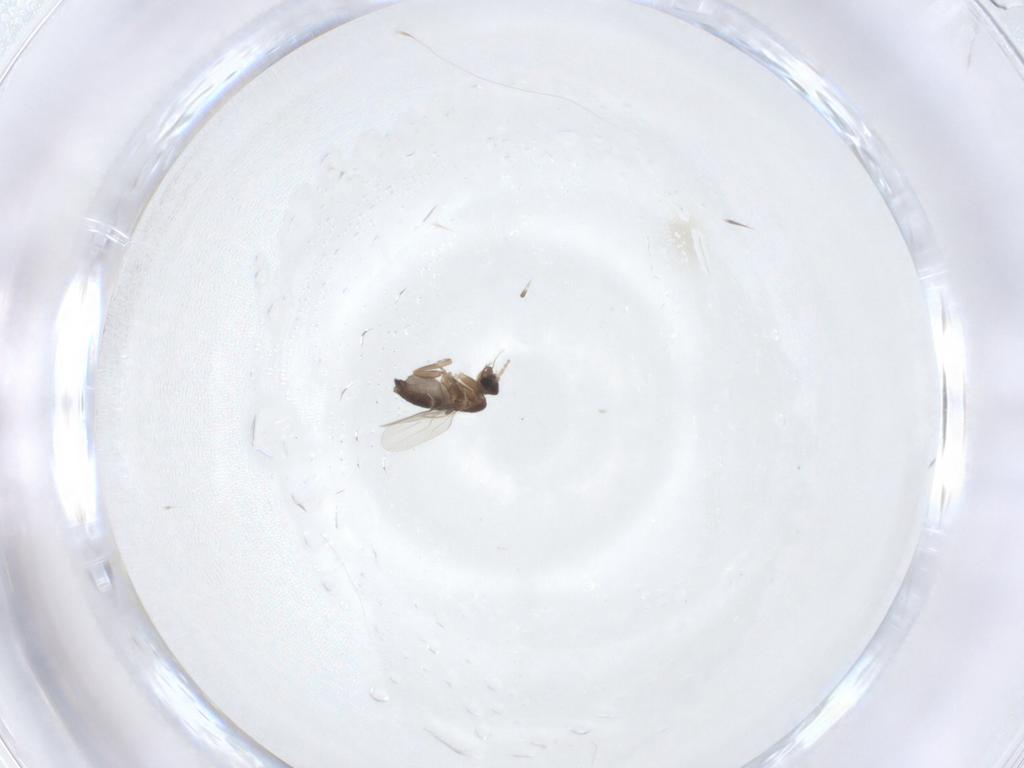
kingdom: Animalia
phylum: Arthropoda
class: Insecta
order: Diptera
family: Phoridae
